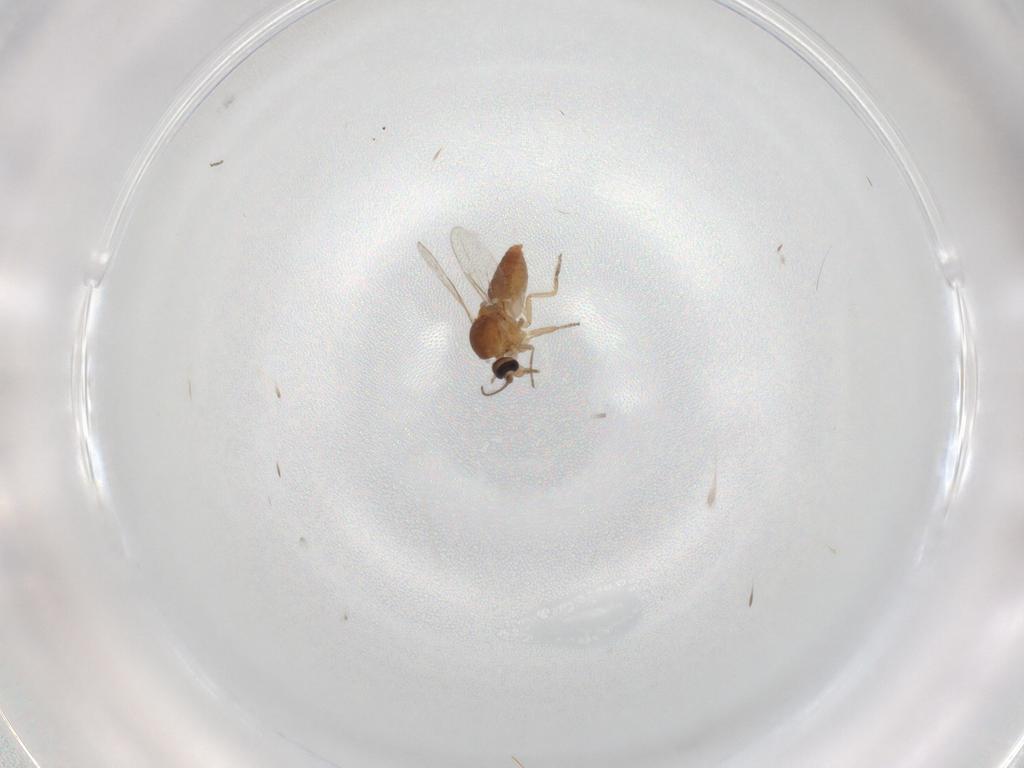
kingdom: Animalia
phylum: Arthropoda
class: Insecta
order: Diptera
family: Ceratopogonidae
